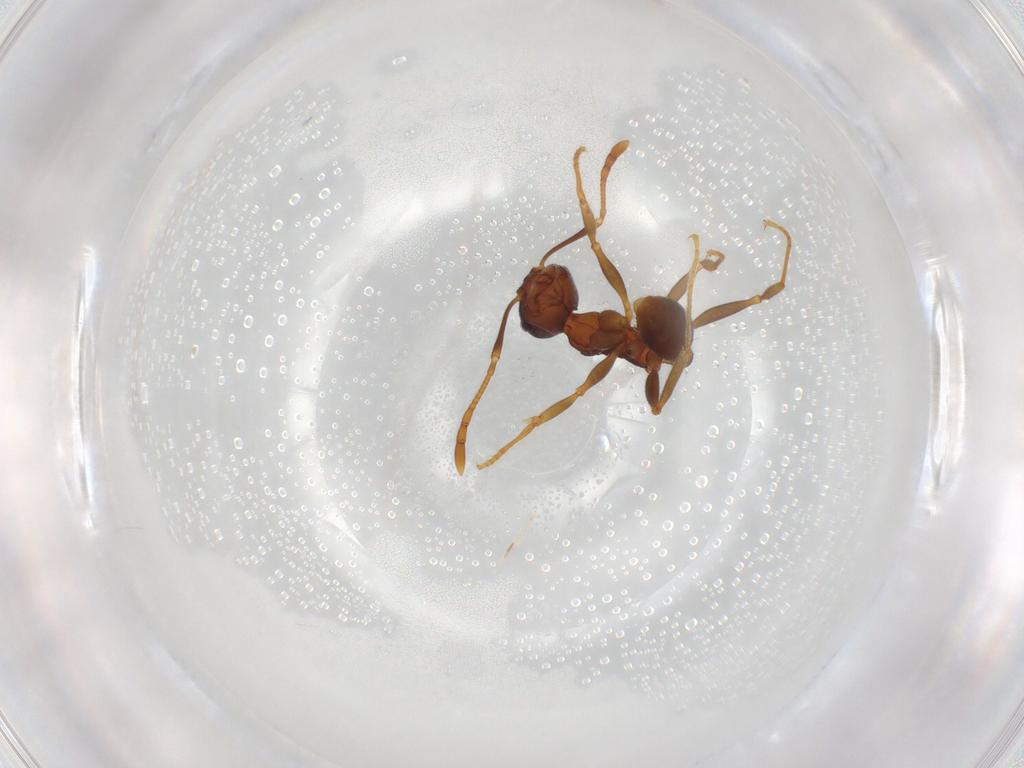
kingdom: Animalia
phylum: Arthropoda
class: Insecta
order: Hymenoptera
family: Formicidae
